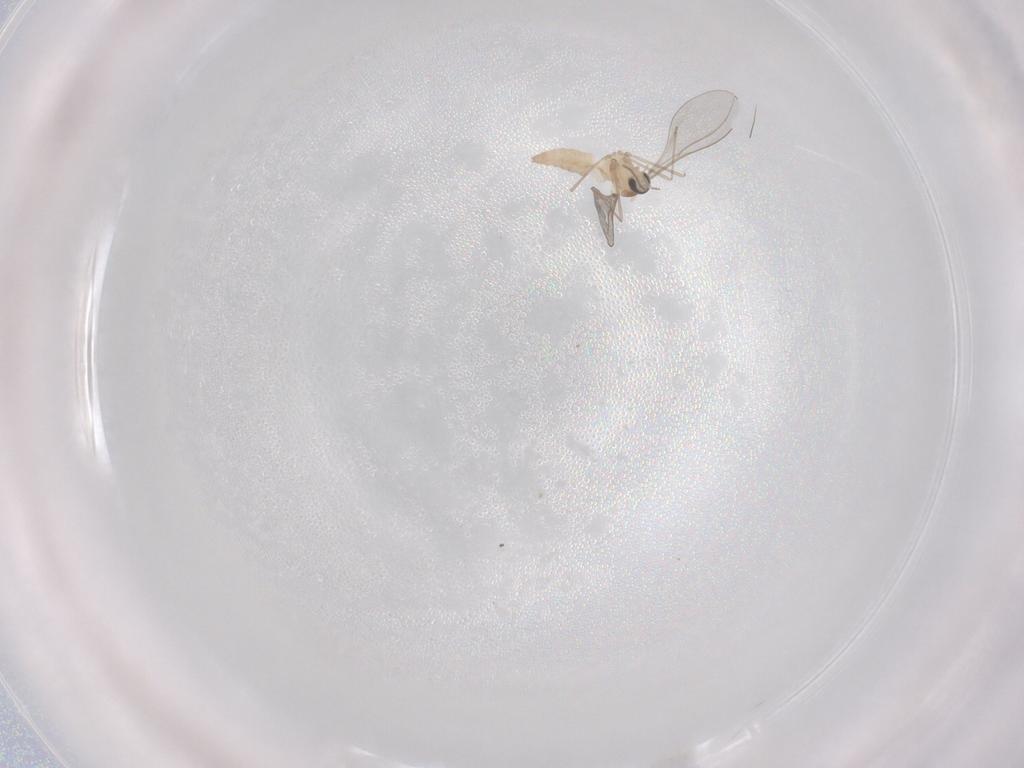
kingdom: Animalia
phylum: Arthropoda
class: Insecta
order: Diptera
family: Cecidomyiidae
